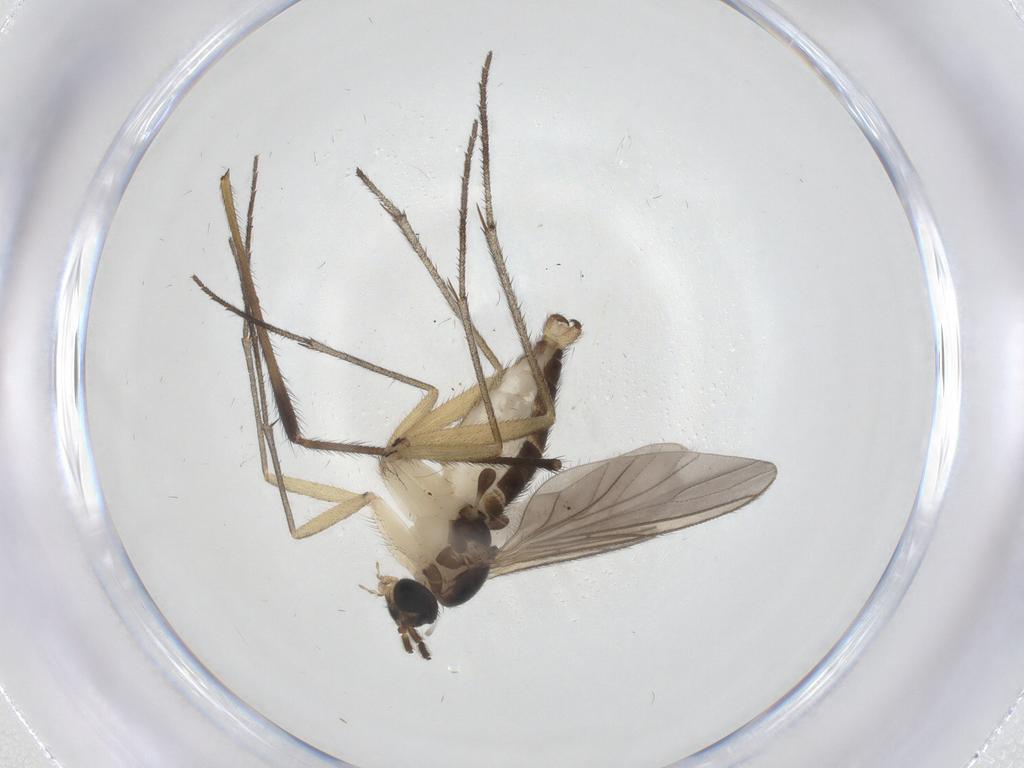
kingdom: Animalia
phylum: Arthropoda
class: Insecta
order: Diptera
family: Sciaridae
